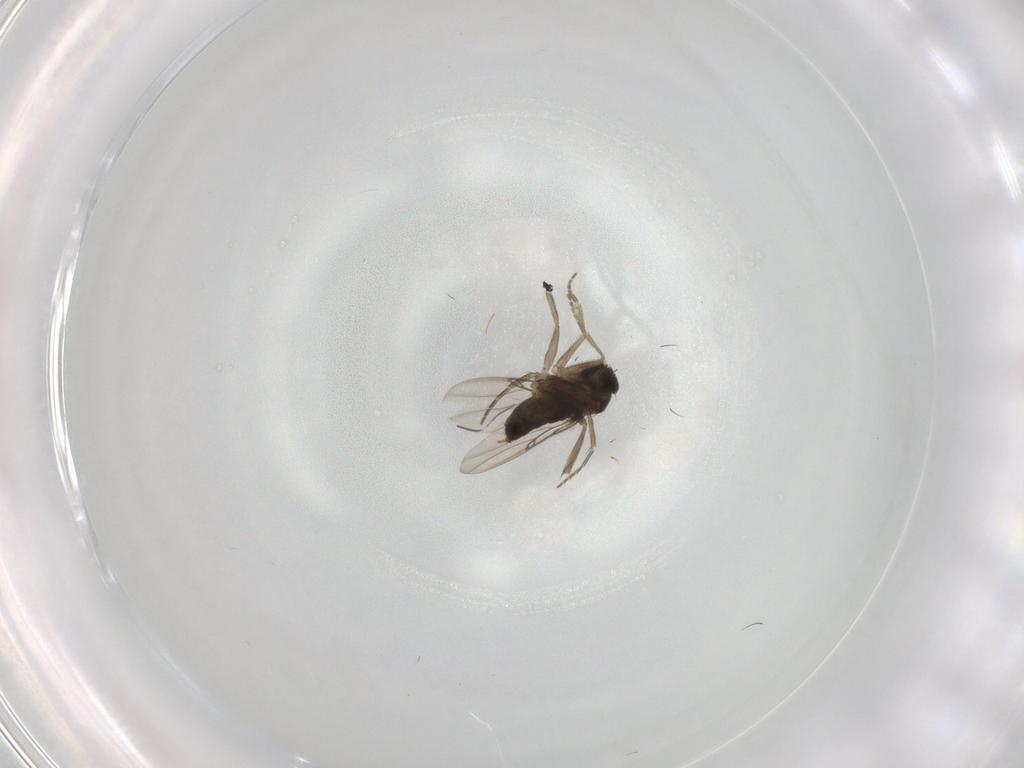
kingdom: Animalia
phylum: Arthropoda
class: Insecta
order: Diptera
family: Phoridae
